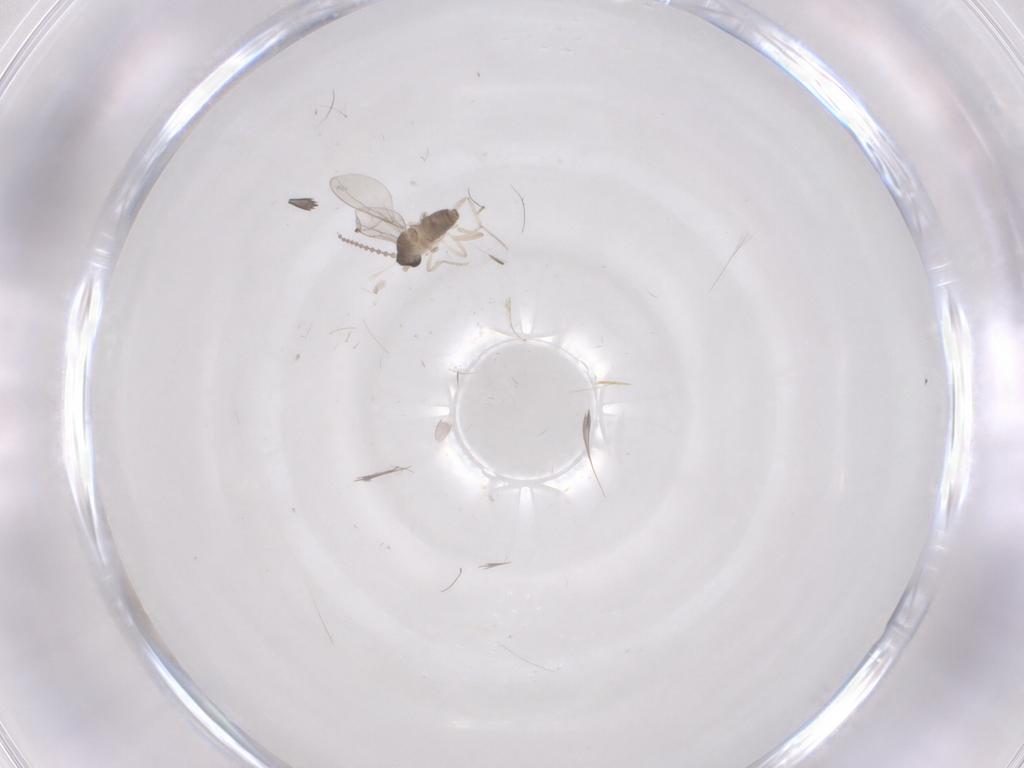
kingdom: Animalia
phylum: Arthropoda
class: Insecta
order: Diptera
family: Cecidomyiidae
